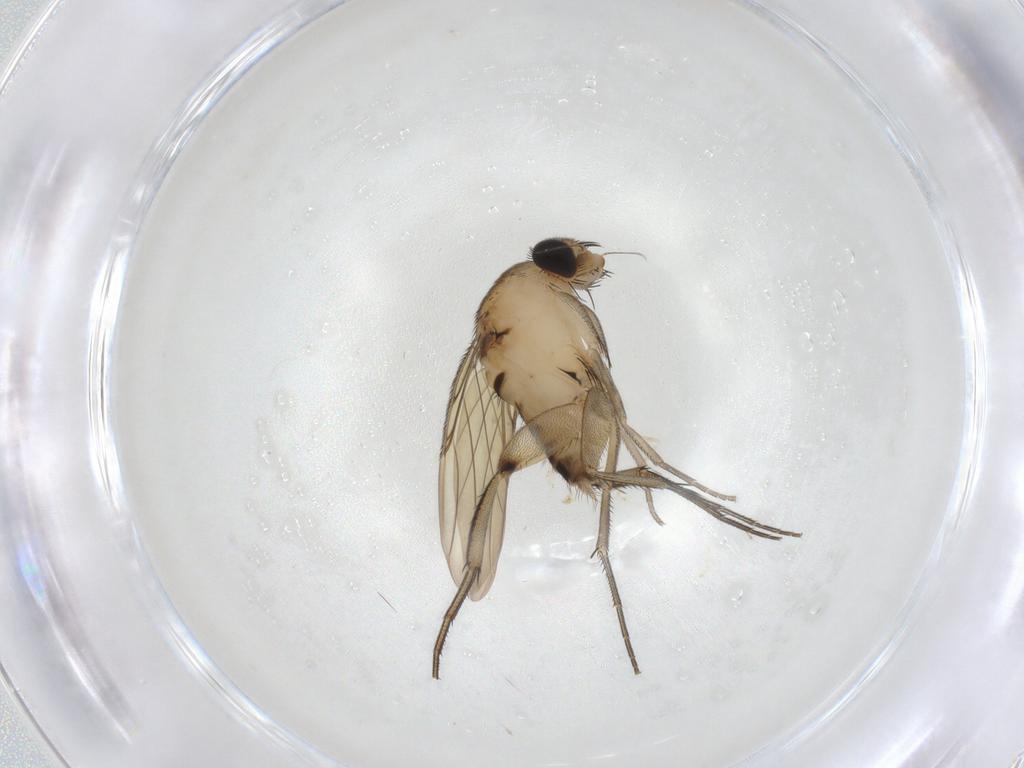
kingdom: Animalia
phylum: Arthropoda
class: Insecta
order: Diptera
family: Phoridae
